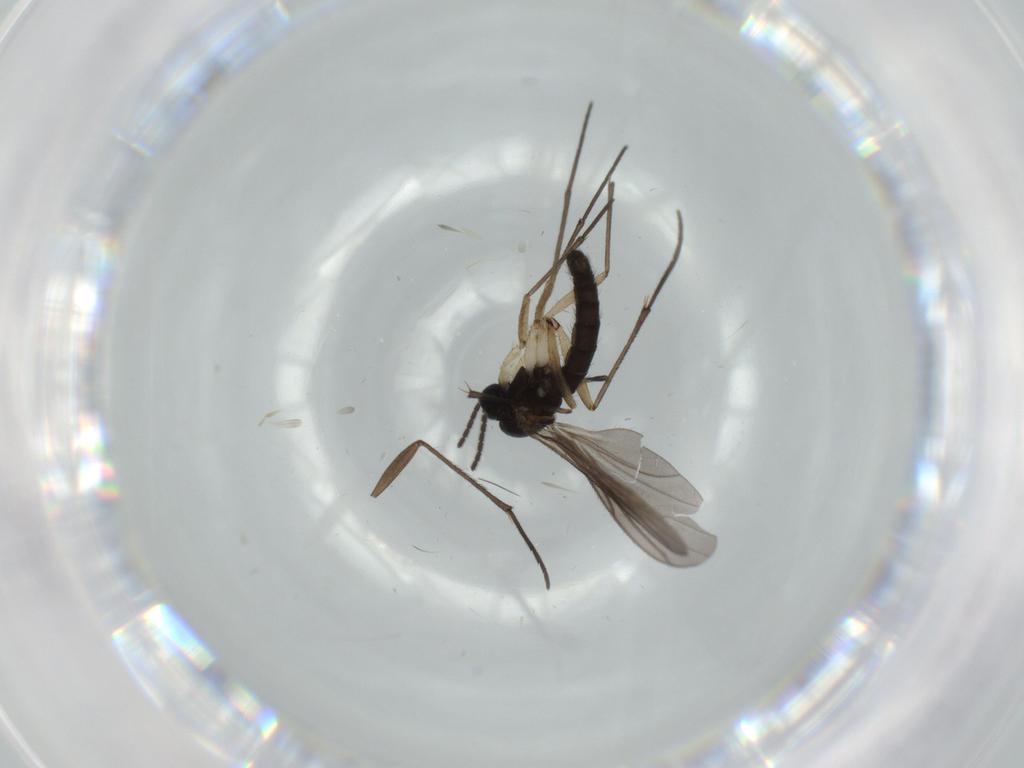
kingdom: Animalia
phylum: Arthropoda
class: Insecta
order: Diptera
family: Sciaridae
